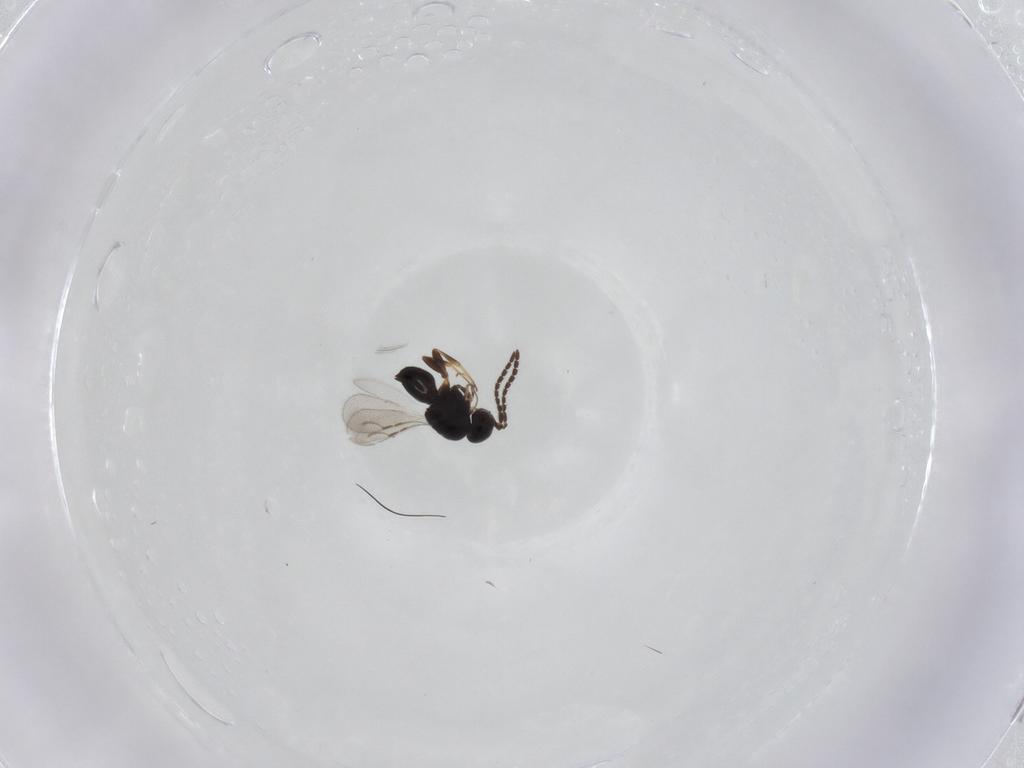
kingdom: Animalia
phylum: Arthropoda
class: Insecta
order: Hymenoptera
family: Ceraphronidae
